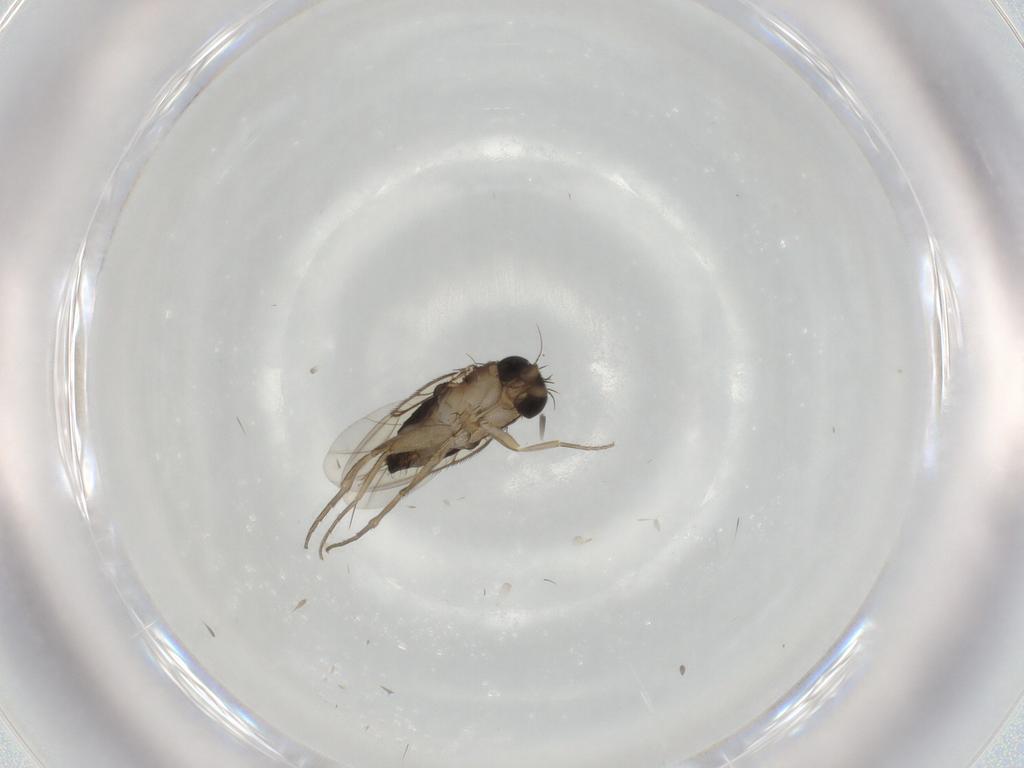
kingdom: Animalia
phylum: Arthropoda
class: Insecta
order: Diptera
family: Phoridae
